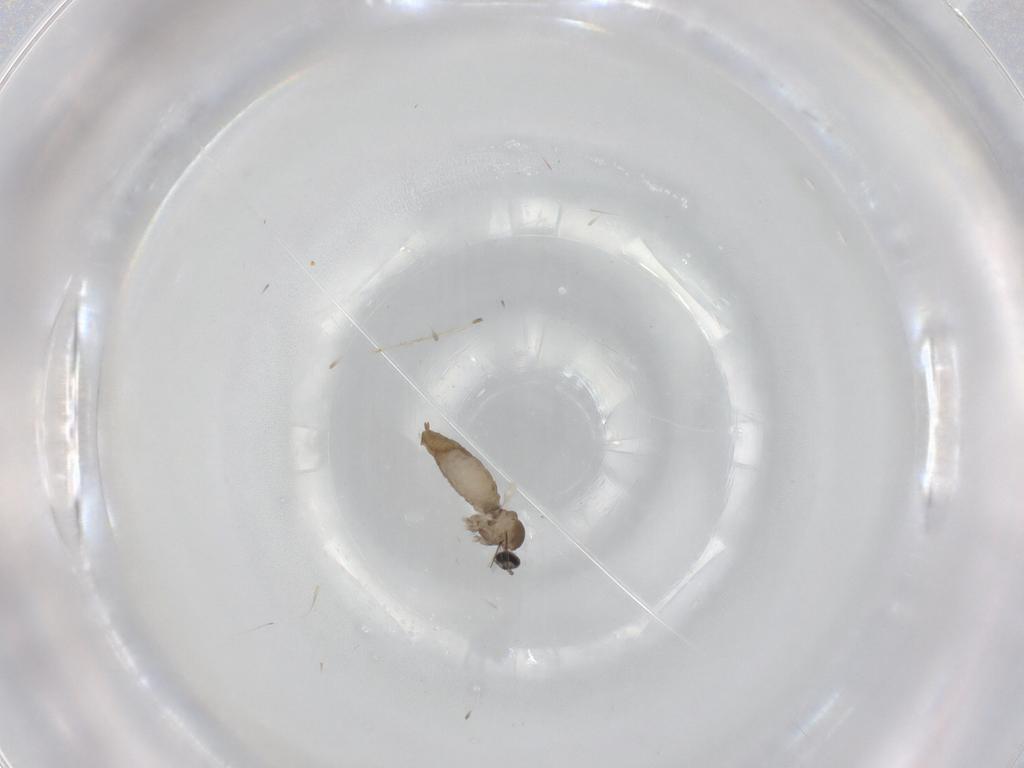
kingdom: Animalia
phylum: Arthropoda
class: Insecta
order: Diptera
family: Cecidomyiidae
